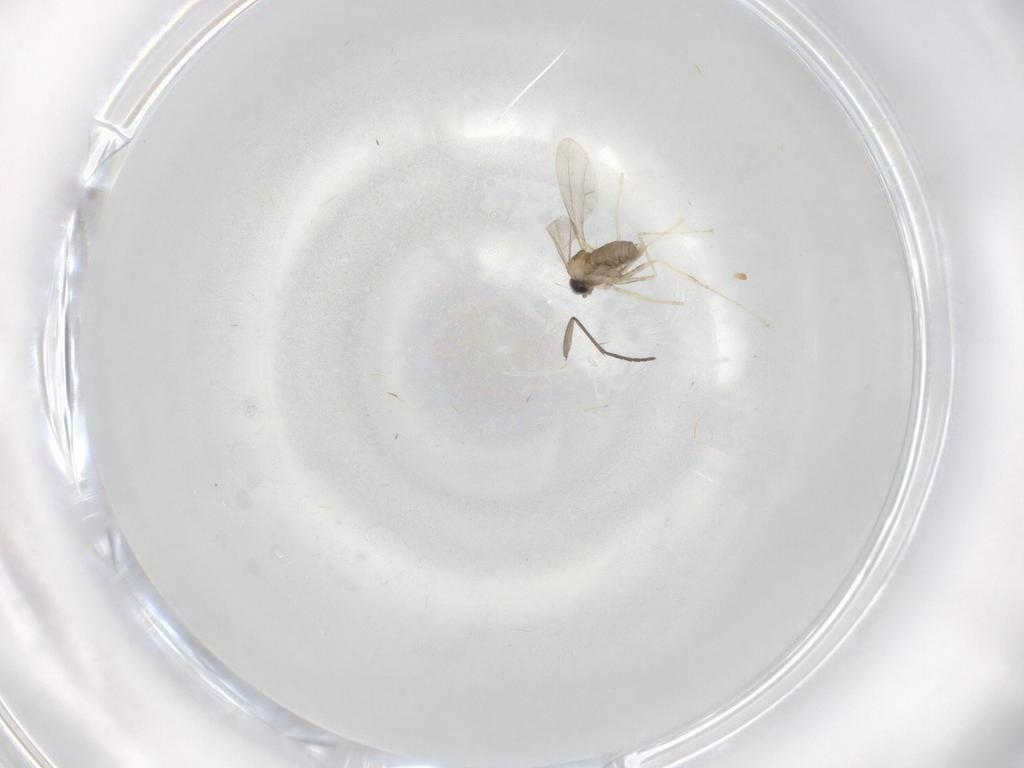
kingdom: Animalia
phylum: Arthropoda
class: Insecta
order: Diptera
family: Cecidomyiidae
